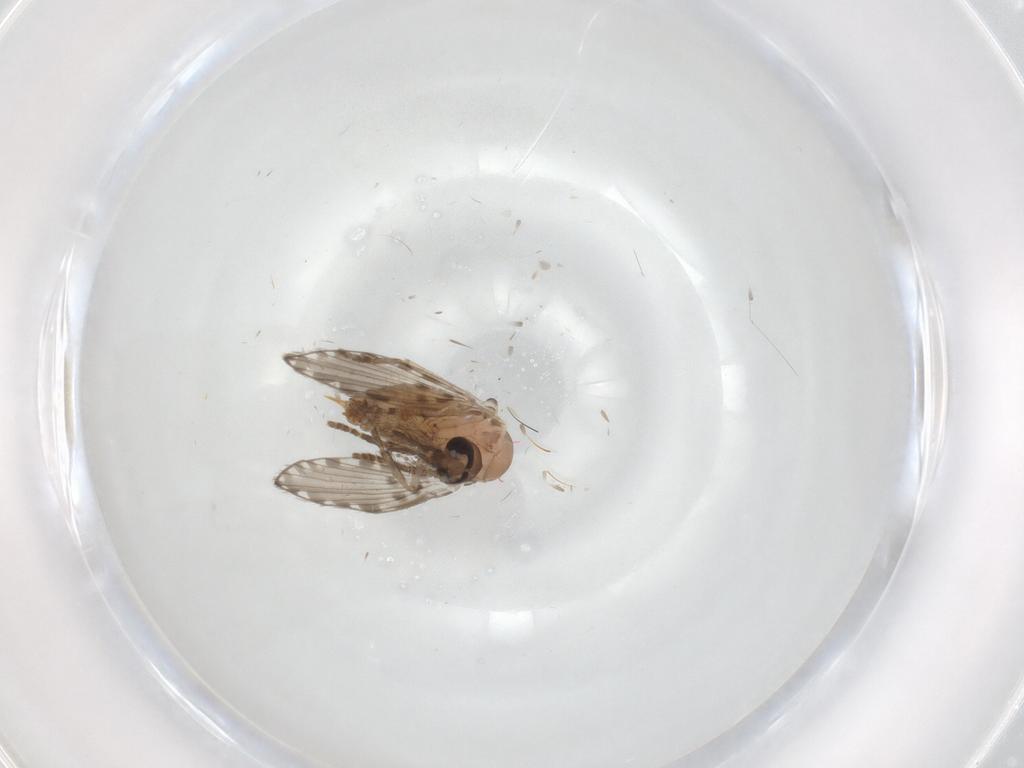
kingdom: Animalia
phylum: Arthropoda
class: Insecta
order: Diptera
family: Psychodidae
